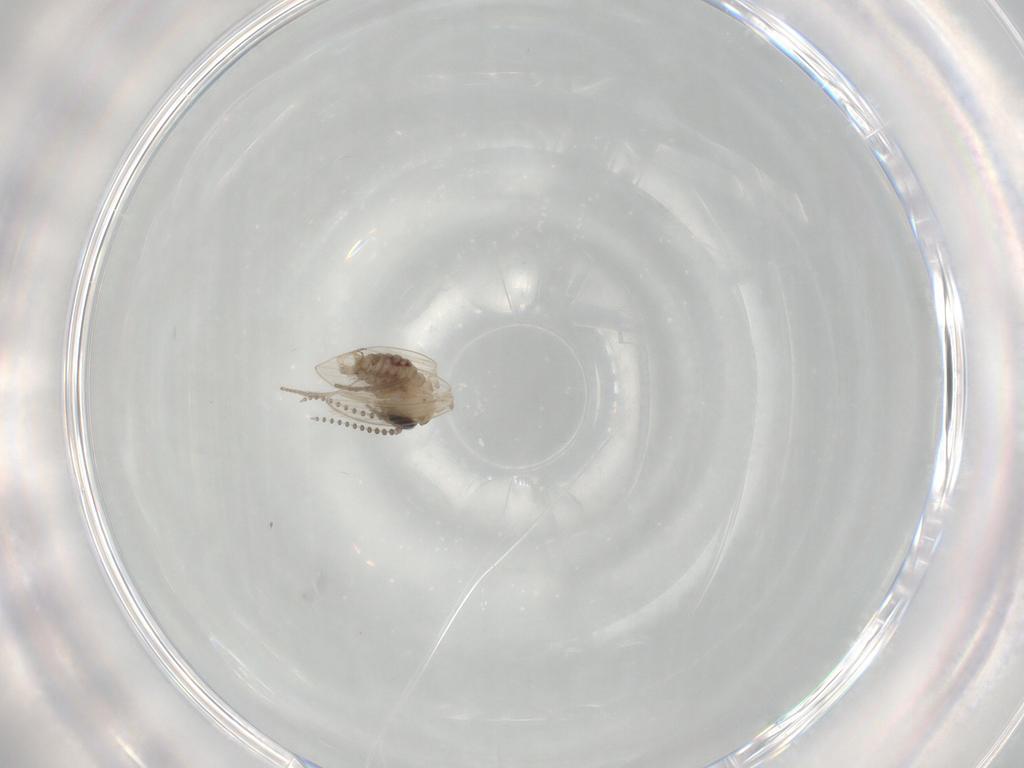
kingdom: Animalia
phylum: Arthropoda
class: Insecta
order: Diptera
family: Psychodidae
